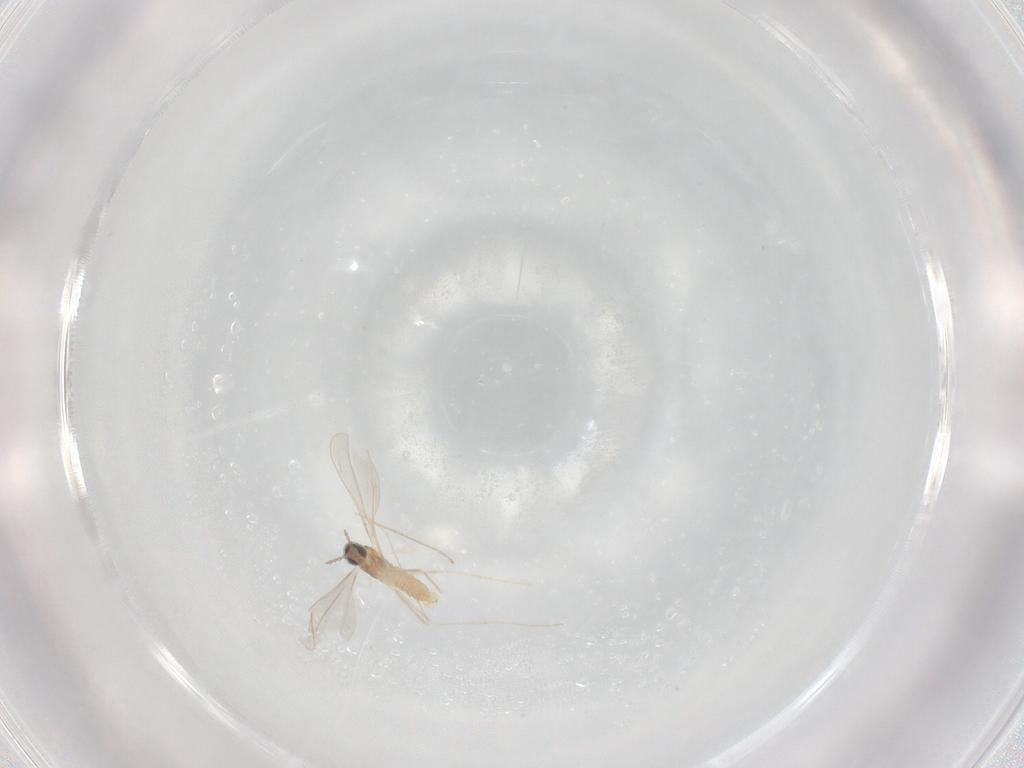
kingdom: Animalia
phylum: Arthropoda
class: Insecta
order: Diptera
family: Cecidomyiidae
